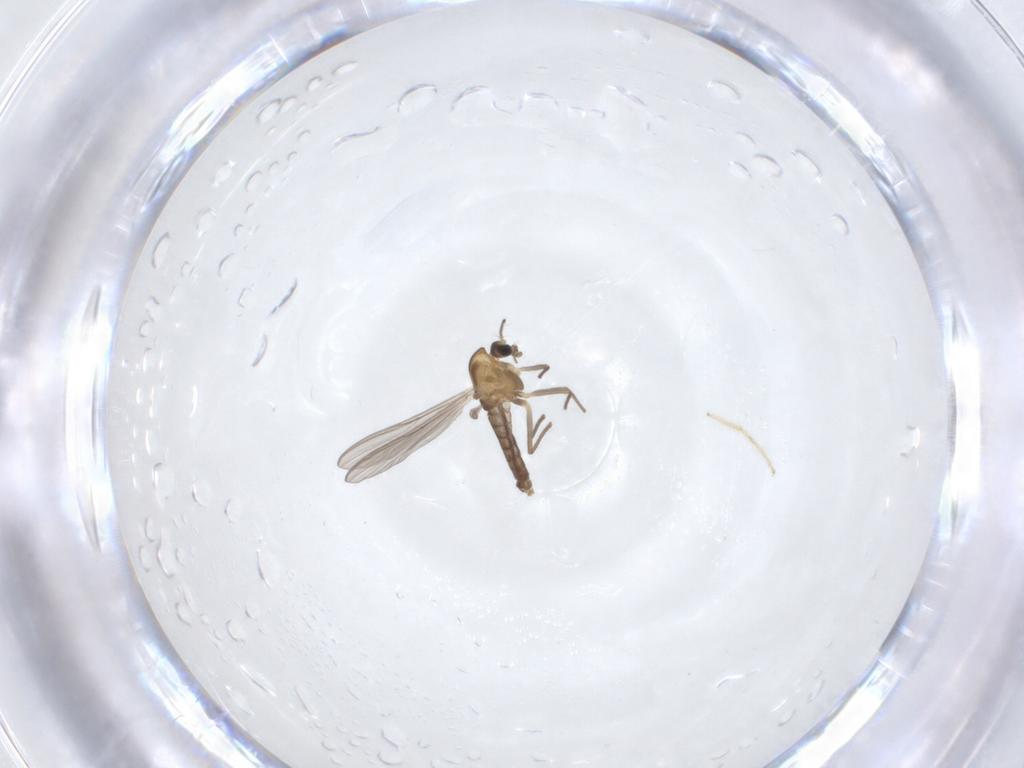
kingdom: Animalia
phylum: Arthropoda
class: Insecta
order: Diptera
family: Chironomidae
